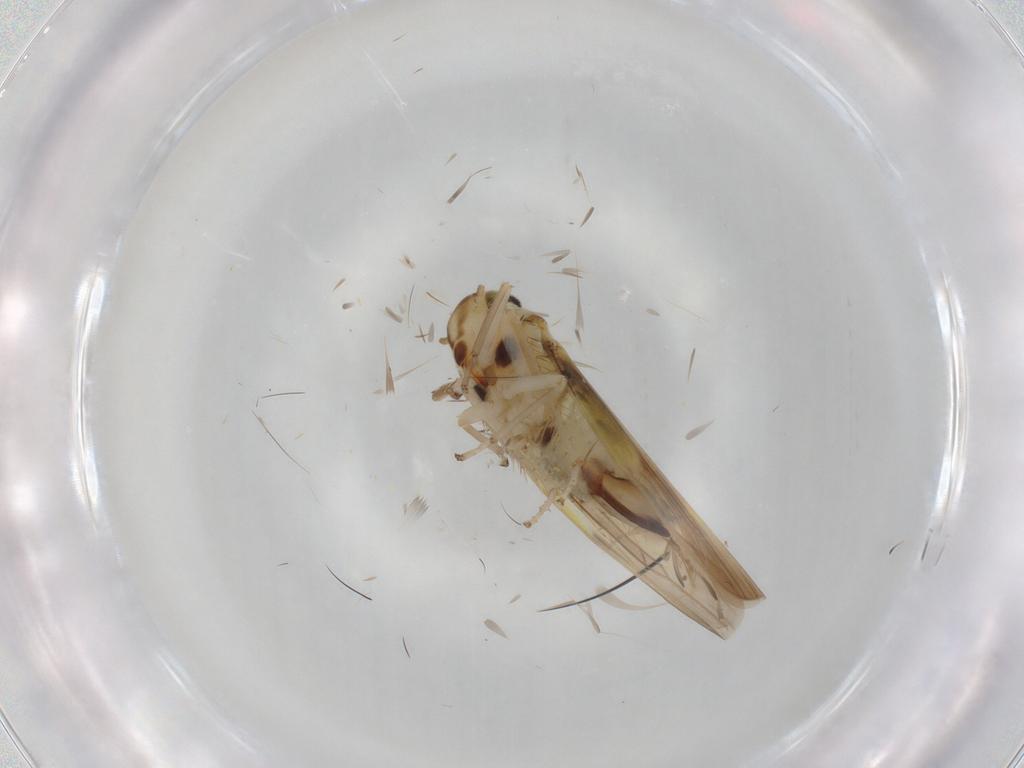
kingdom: Animalia
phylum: Arthropoda
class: Insecta
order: Hymenoptera
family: Dryinidae
